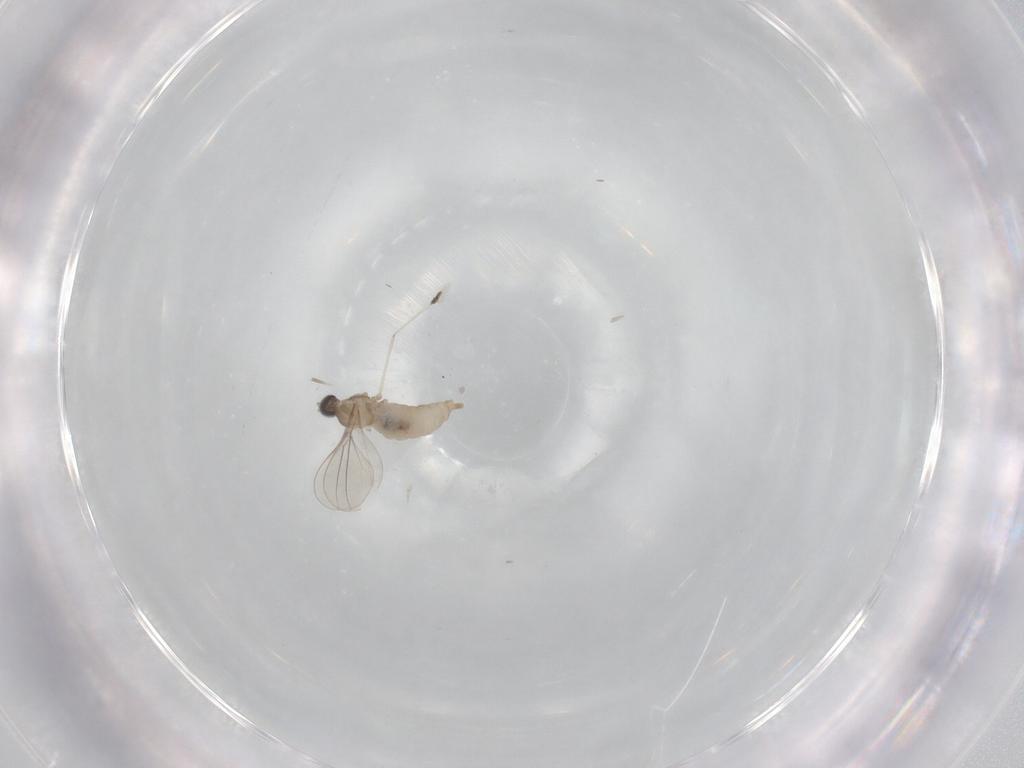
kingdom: Animalia
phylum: Arthropoda
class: Insecta
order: Diptera
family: Cecidomyiidae
